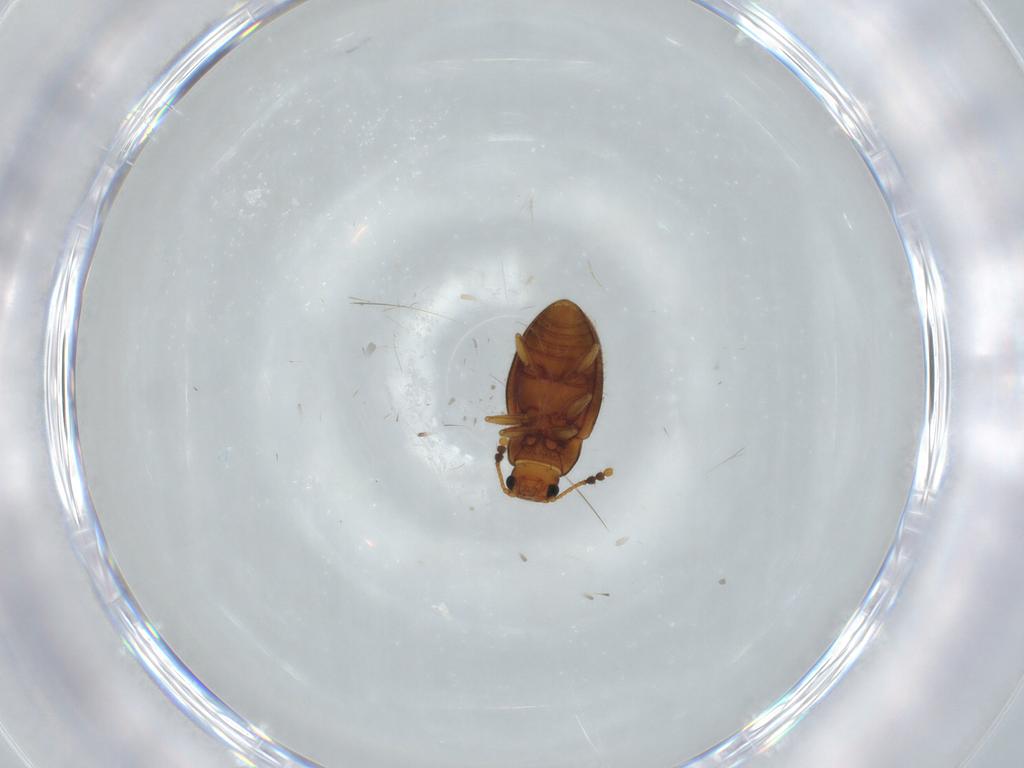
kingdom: Animalia
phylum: Arthropoda
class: Insecta
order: Coleoptera
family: Erotylidae
